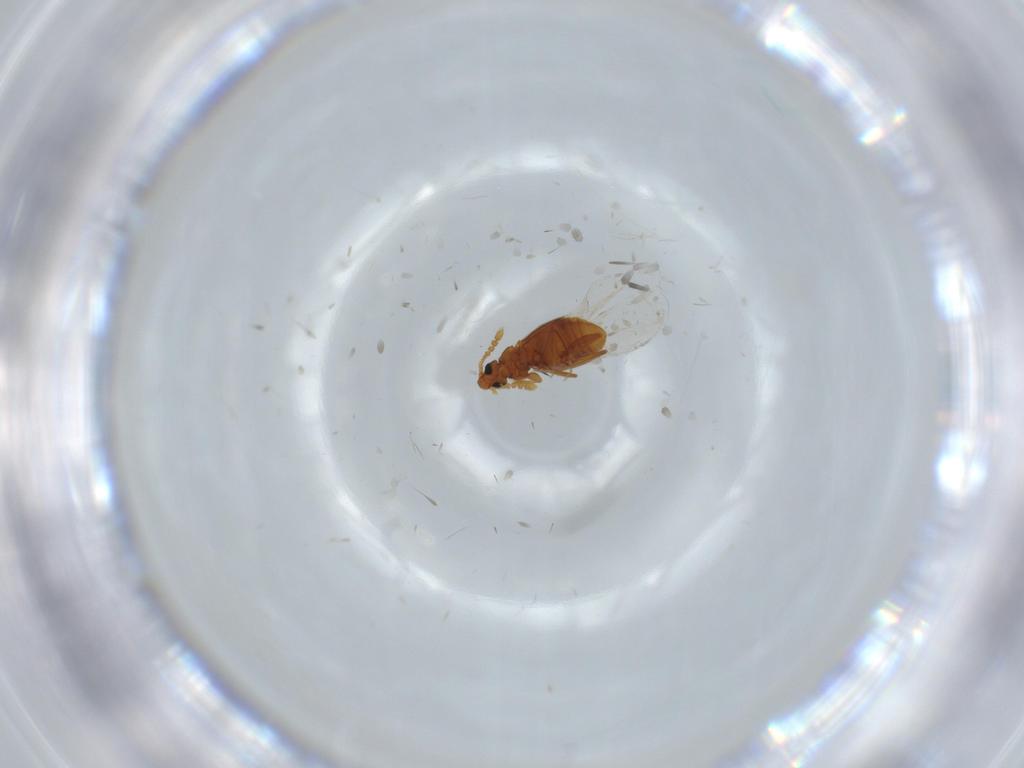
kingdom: Animalia
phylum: Arthropoda
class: Insecta
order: Coleoptera
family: Staphylinidae
